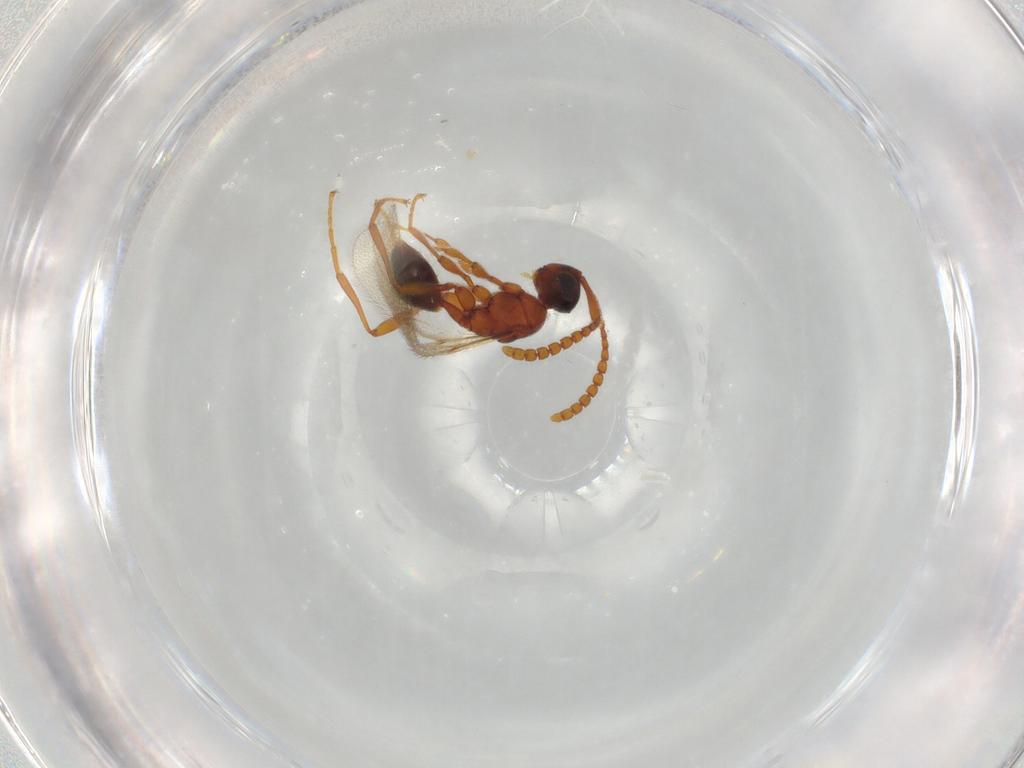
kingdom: Animalia
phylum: Arthropoda
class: Insecta
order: Hymenoptera
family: Diapriidae
